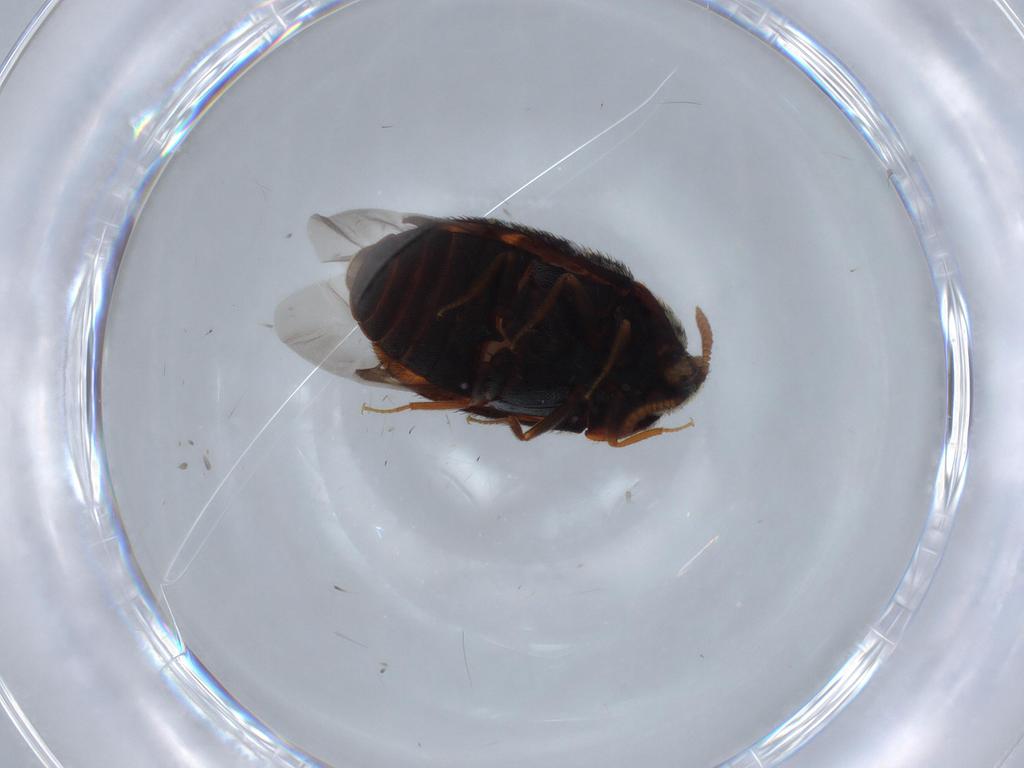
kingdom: Animalia
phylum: Arthropoda
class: Insecta
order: Coleoptera
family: Dermestidae
